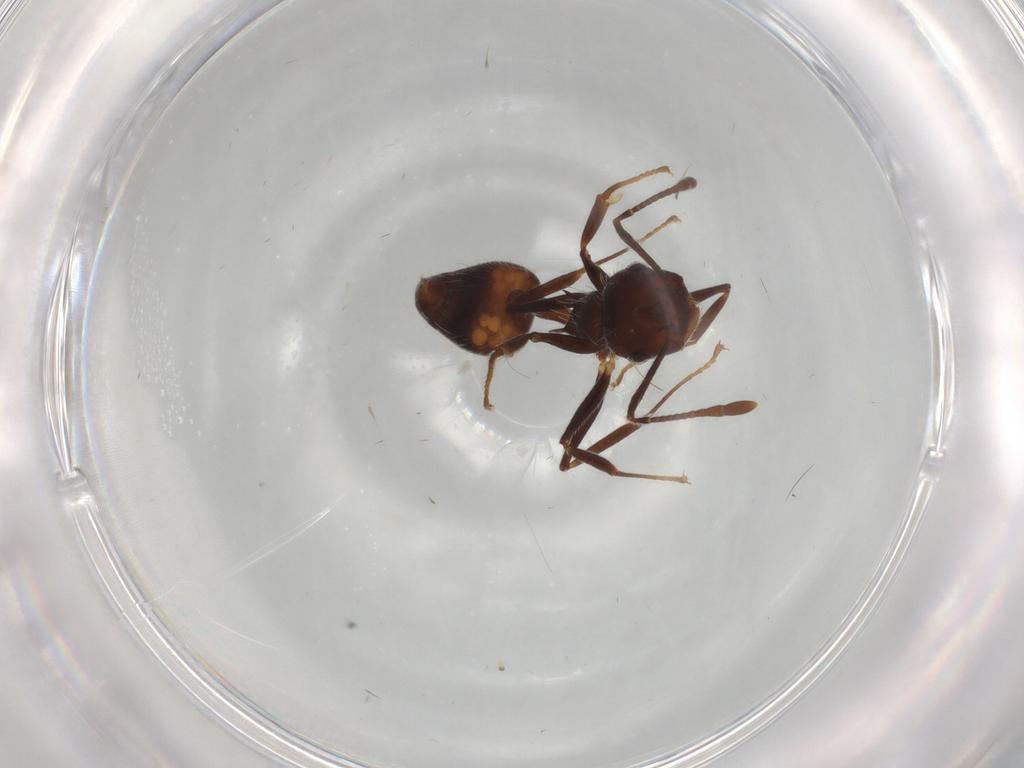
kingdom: Animalia
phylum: Arthropoda
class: Insecta
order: Hymenoptera
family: Formicidae
